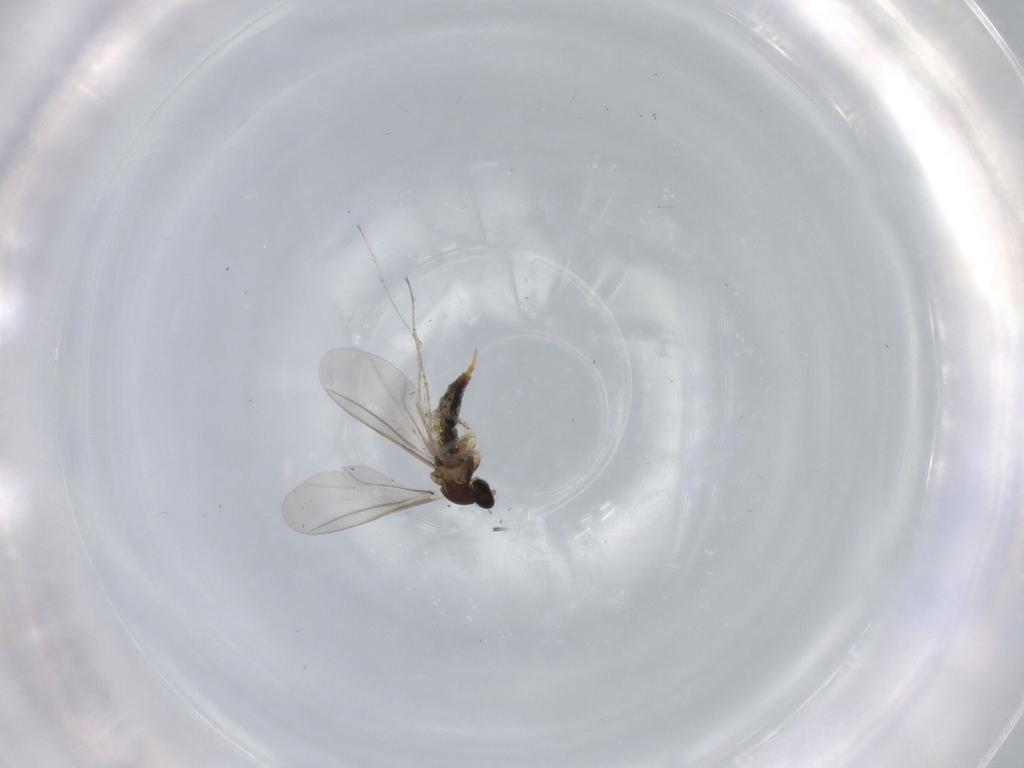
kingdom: Animalia
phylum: Arthropoda
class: Insecta
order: Diptera
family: Cecidomyiidae
